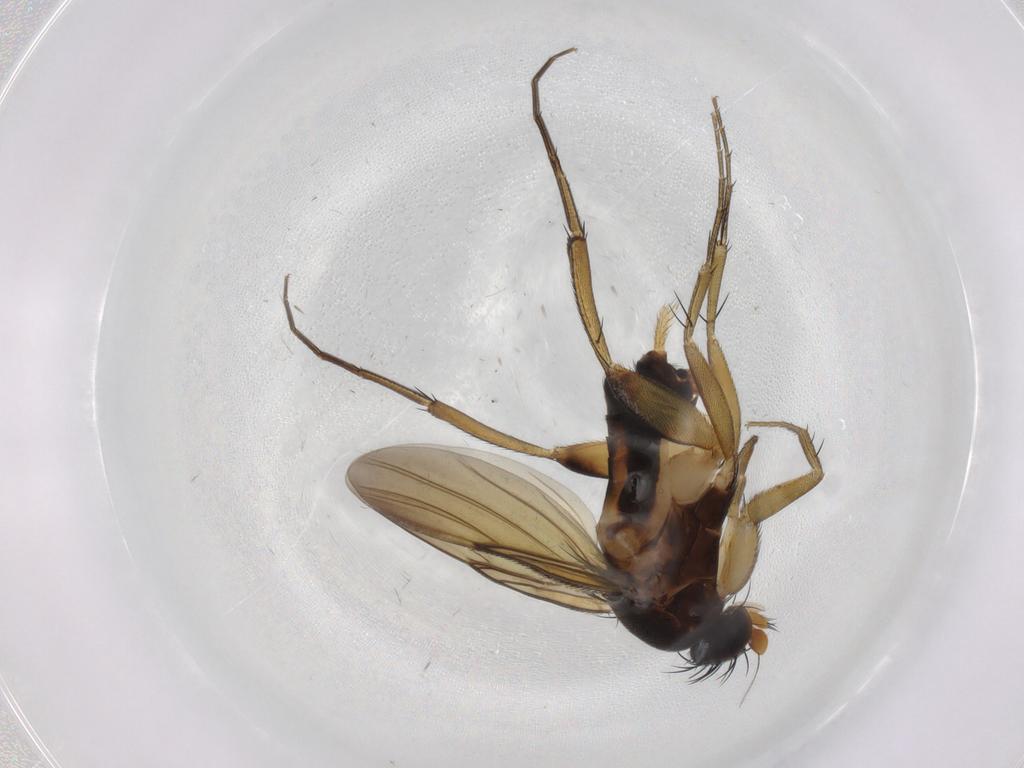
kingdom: Animalia
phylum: Arthropoda
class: Insecta
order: Diptera
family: Phoridae
